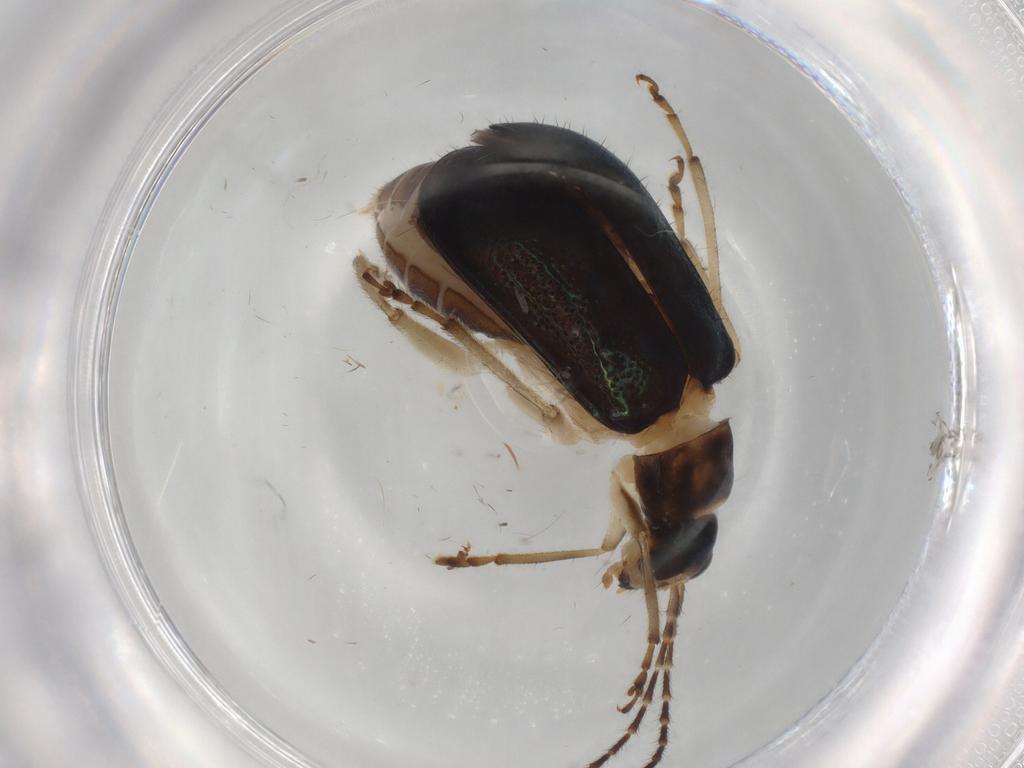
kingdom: Animalia
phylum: Arthropoda
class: Insecta
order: Coleoptera
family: Chrysomelidae
